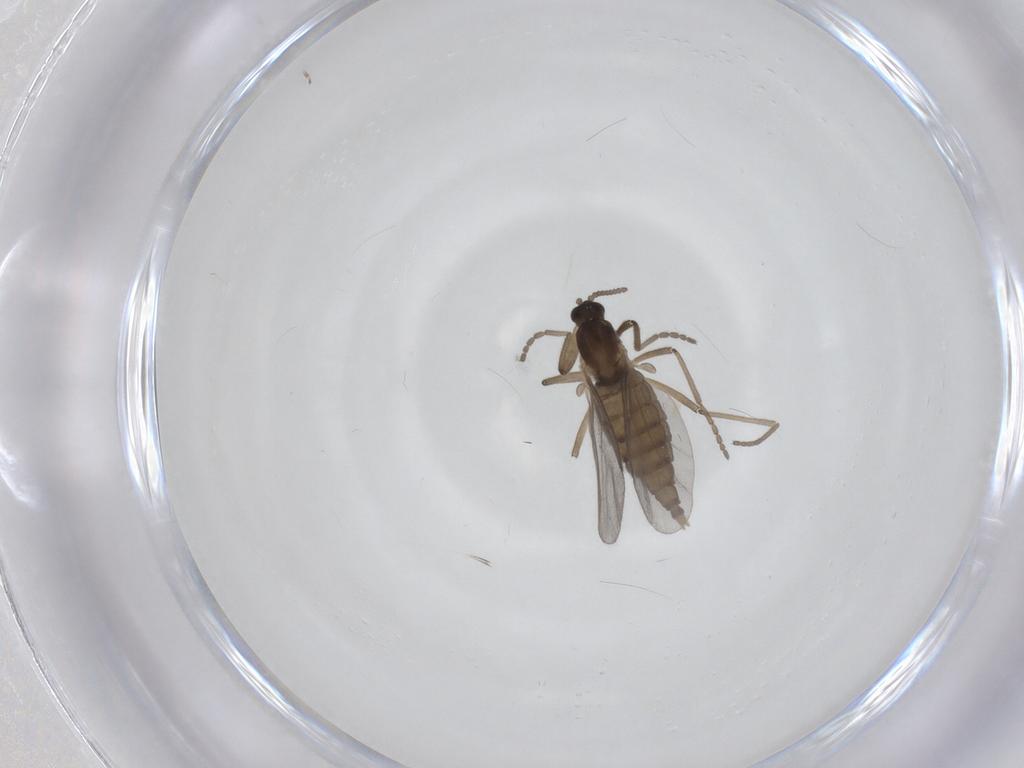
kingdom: Animalia
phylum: Arthropoda
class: Insecta
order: Diptera
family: Cecidomyiidae
